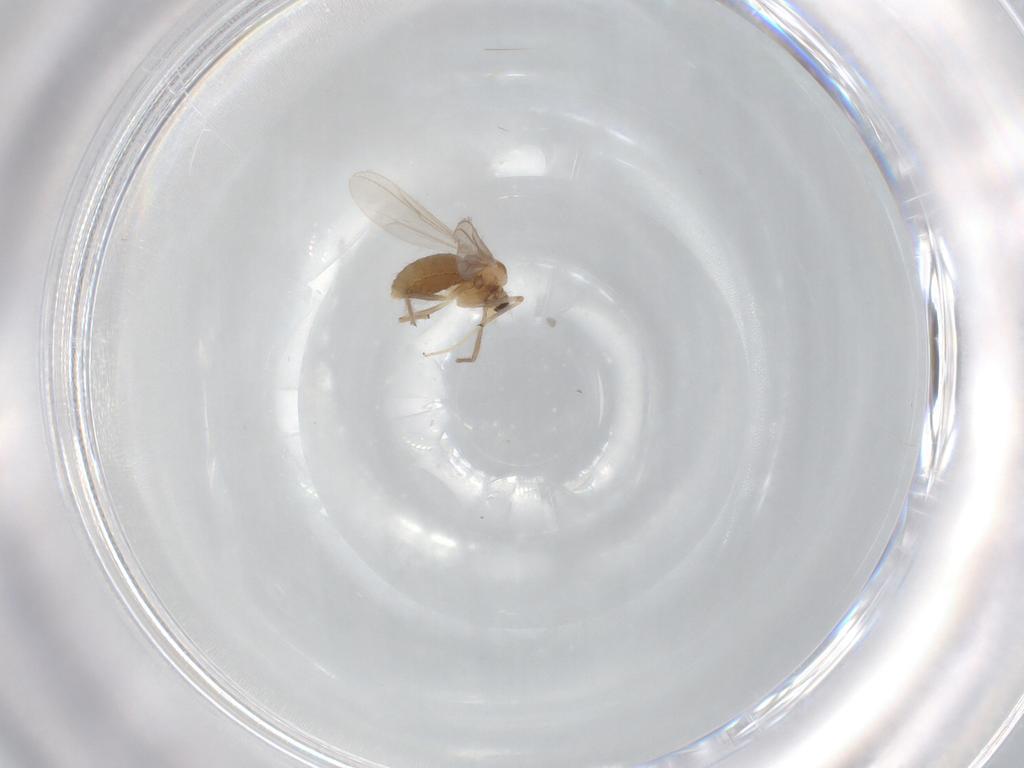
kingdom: Animalia
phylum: Arthropoda
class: Insecta
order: Diptera
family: Chironomidae
